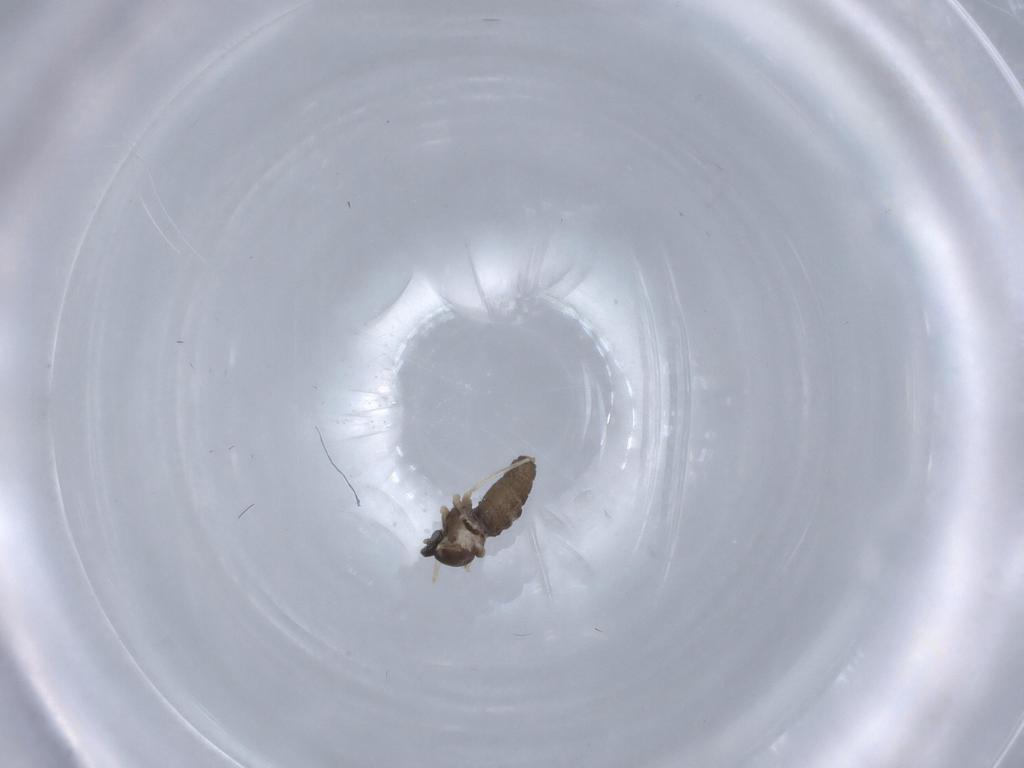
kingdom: Animalia
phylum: Arthropoda
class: Insecta
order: Diptera
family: Cecidomyiidae
